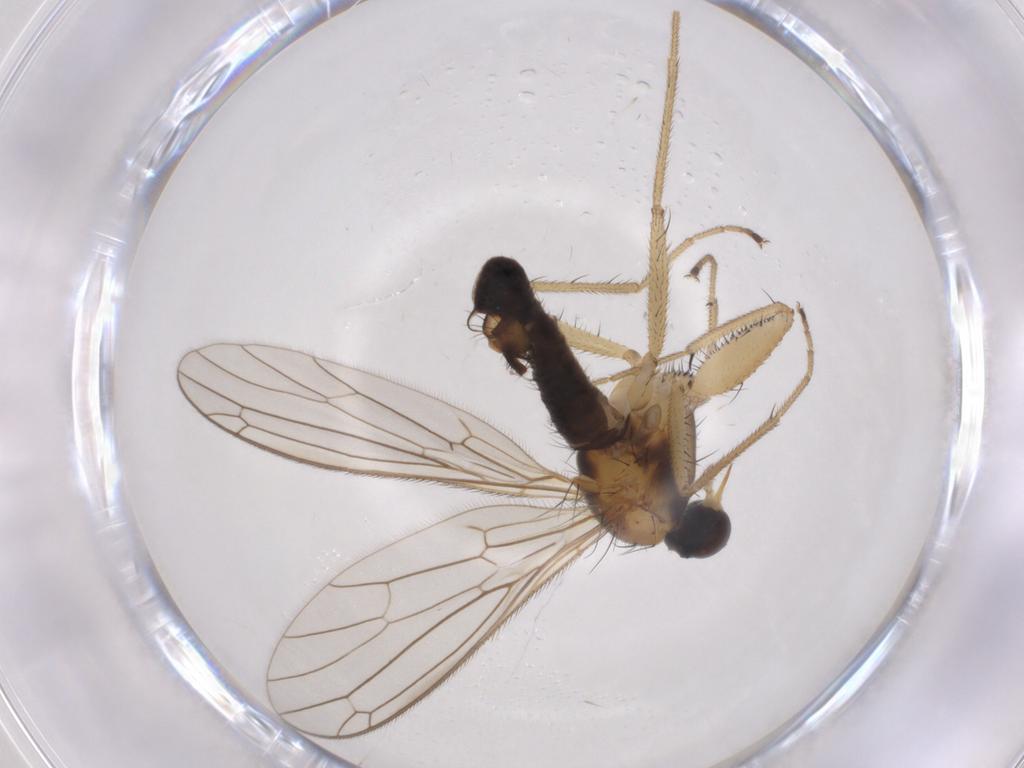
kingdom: Animalia
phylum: Arthropoda
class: Insecta
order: Diptera
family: Empididae
